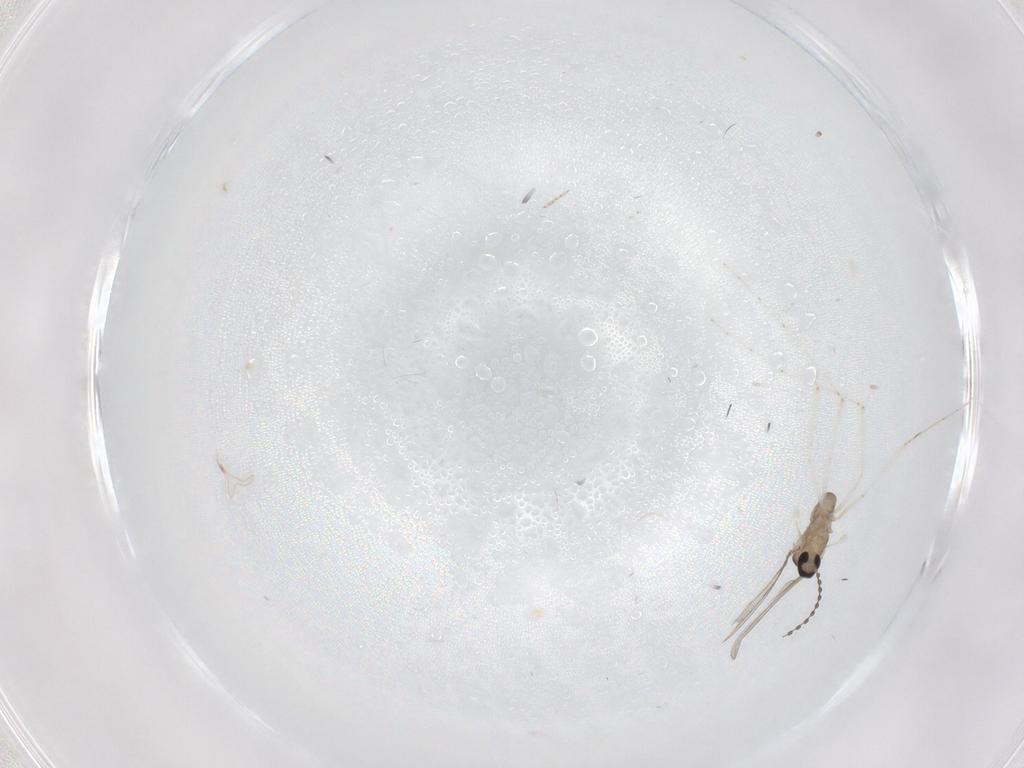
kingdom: Animalia
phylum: Arthropoda
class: Insecta
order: Diptera
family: Cecidomyiidae
